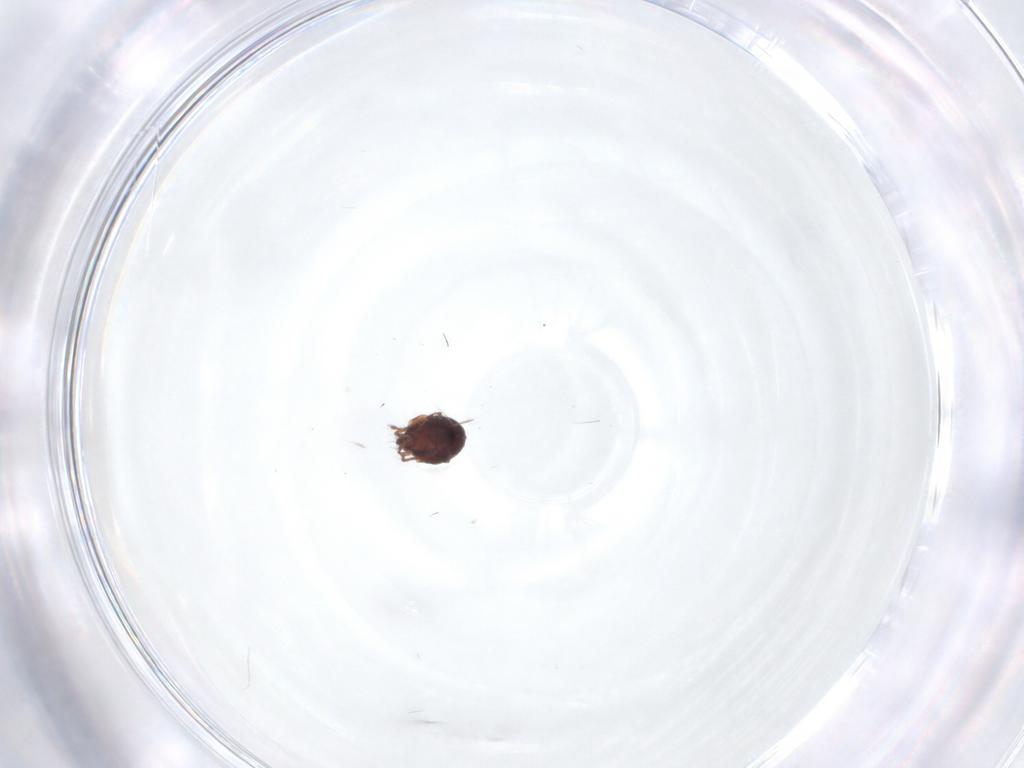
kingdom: Animalia
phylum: Arthropoda
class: Arachnida
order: Sarcoptiformes
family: Ceratozetidae
